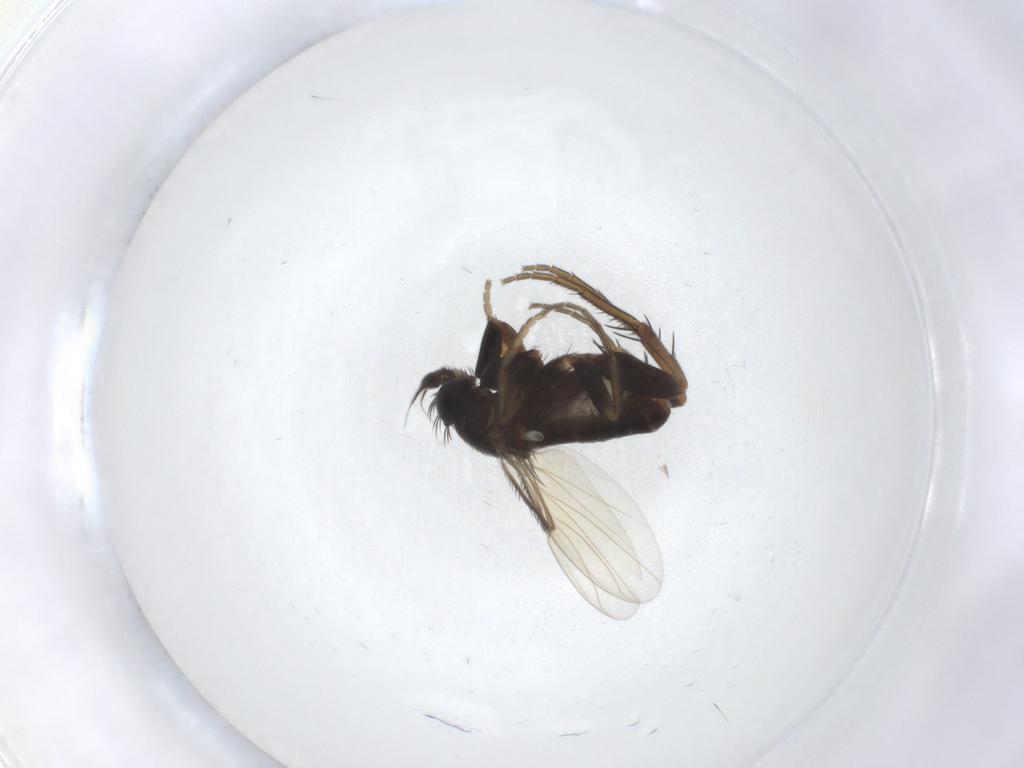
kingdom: Animalia
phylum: Arthropoda
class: Insecta
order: Diptera
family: Phoridae
